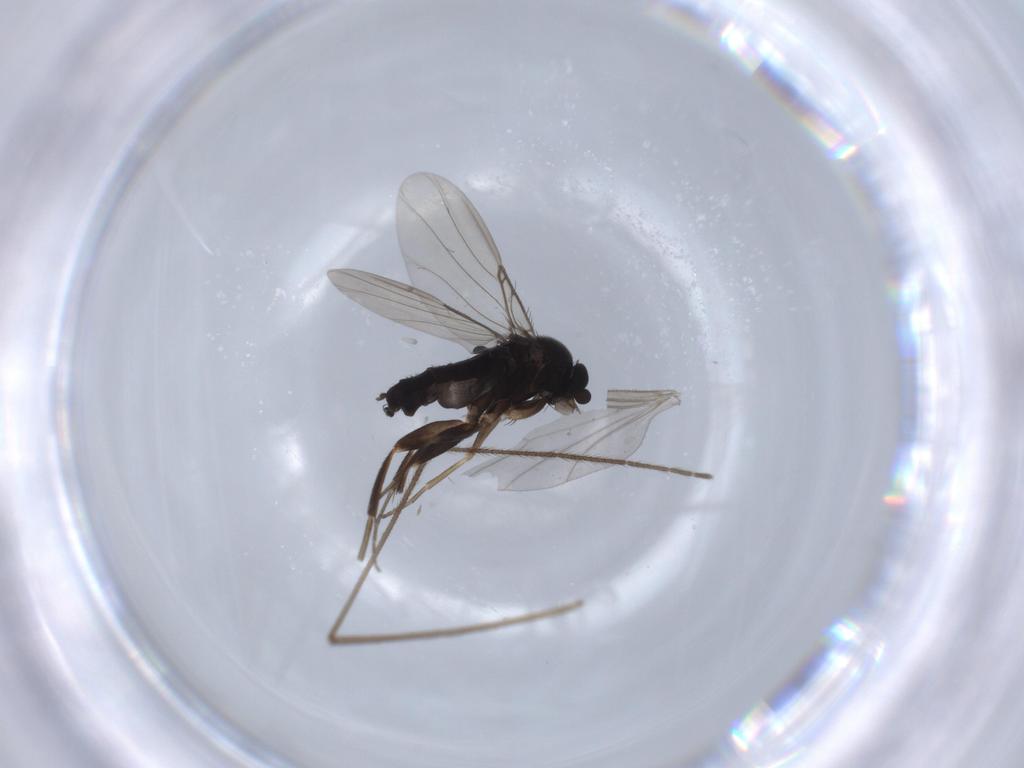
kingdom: Animalia
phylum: Arthropoda
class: Insecta
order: Diptera
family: Phoridae
